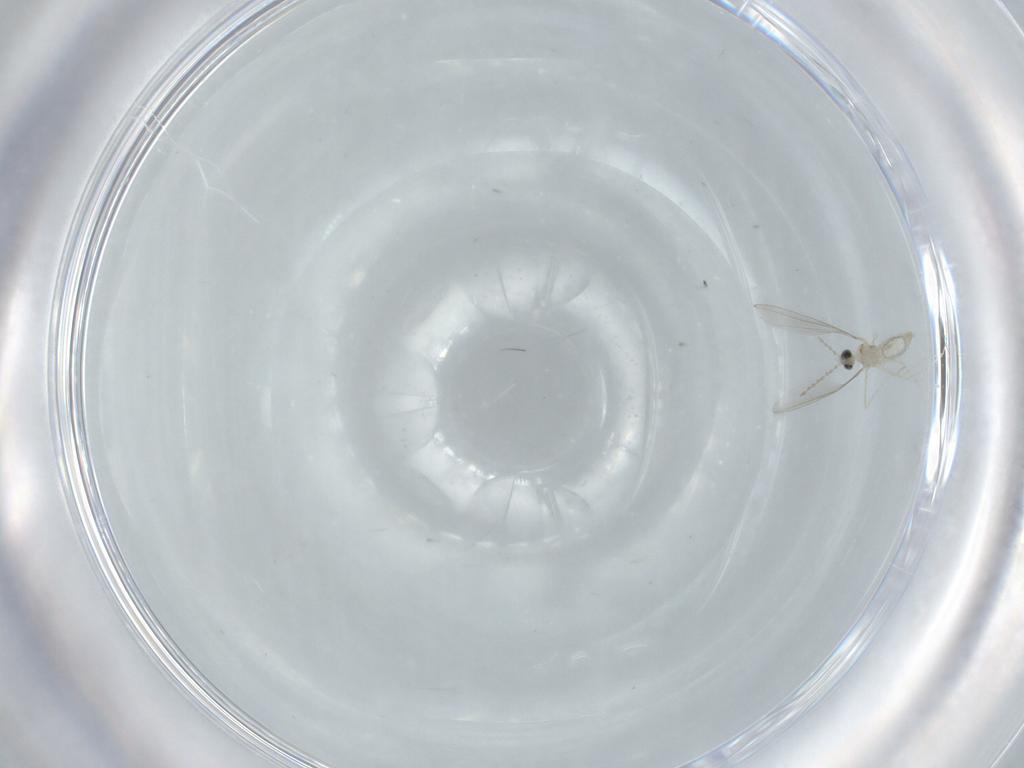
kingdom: Animalia
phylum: Arthropoda
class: Insecta
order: Diptera
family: Cecidomyiidae
